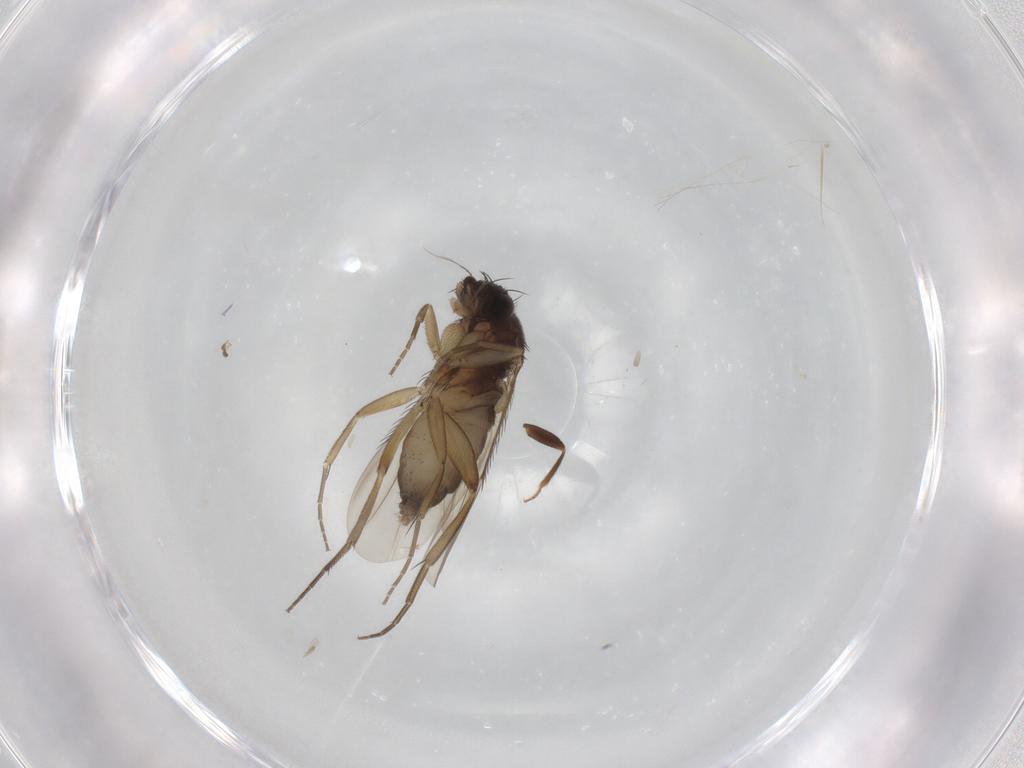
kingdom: Animalia
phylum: Arthropoda
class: Insecta
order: Diptera
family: Phoridae
